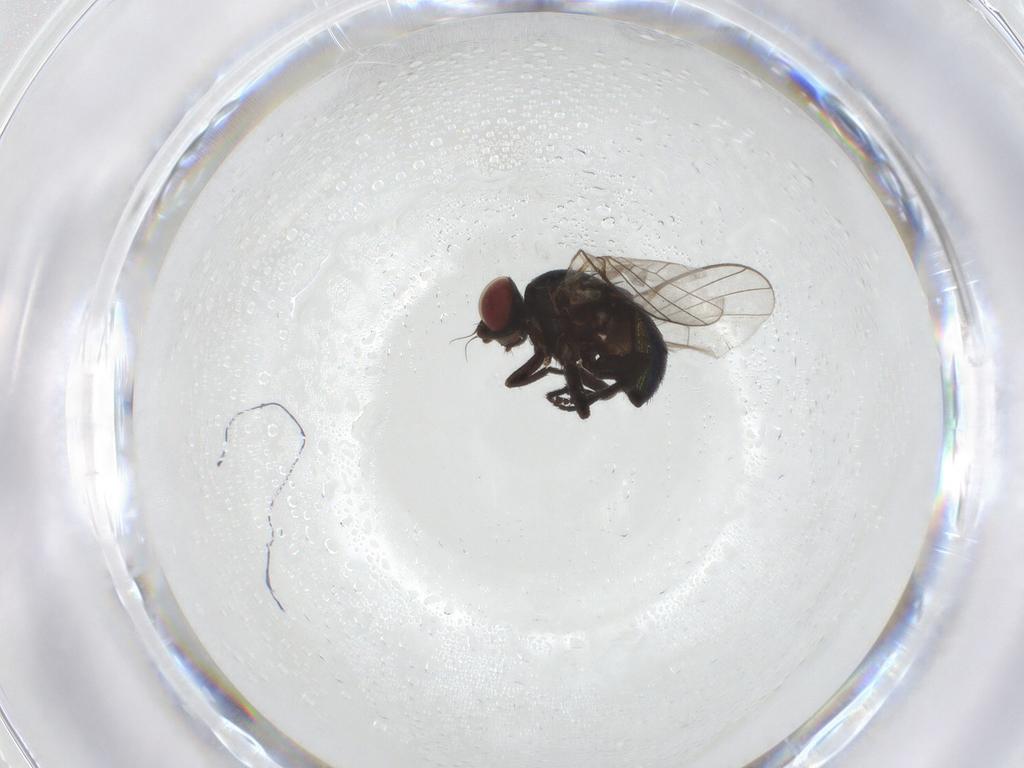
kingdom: Animalia
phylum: Arthropoda
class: Insecta
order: Diptera
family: Agromyzidae
